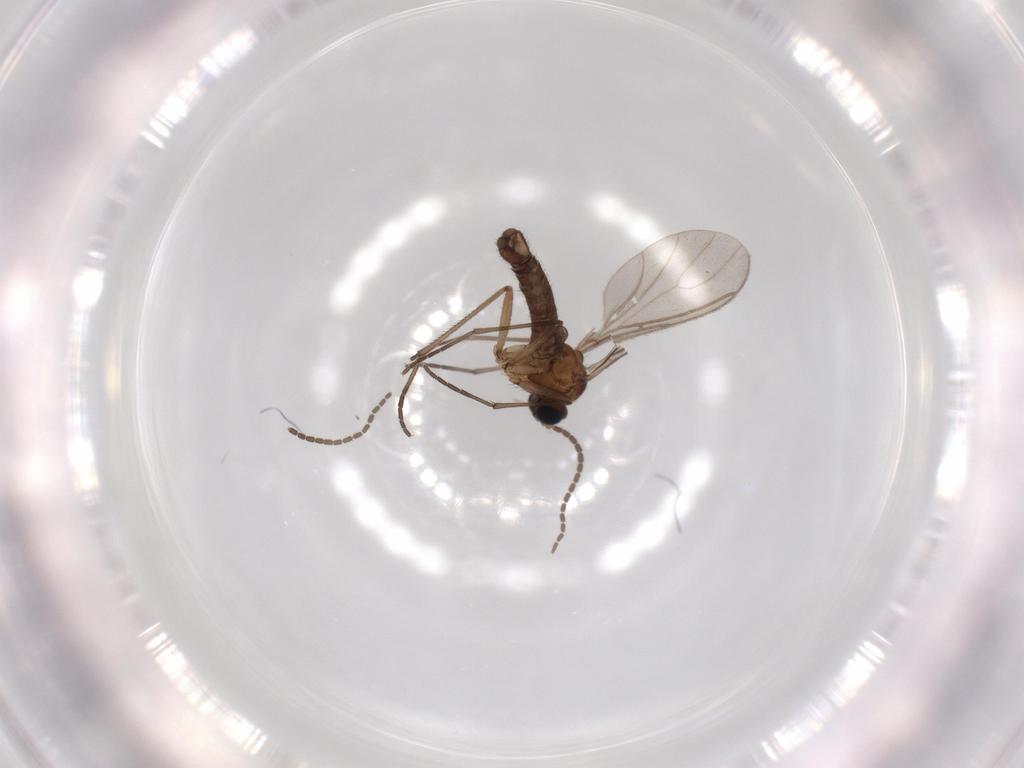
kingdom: Animalia
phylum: Arthropoda
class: Insecta
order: Diptera
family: Sciaridae
